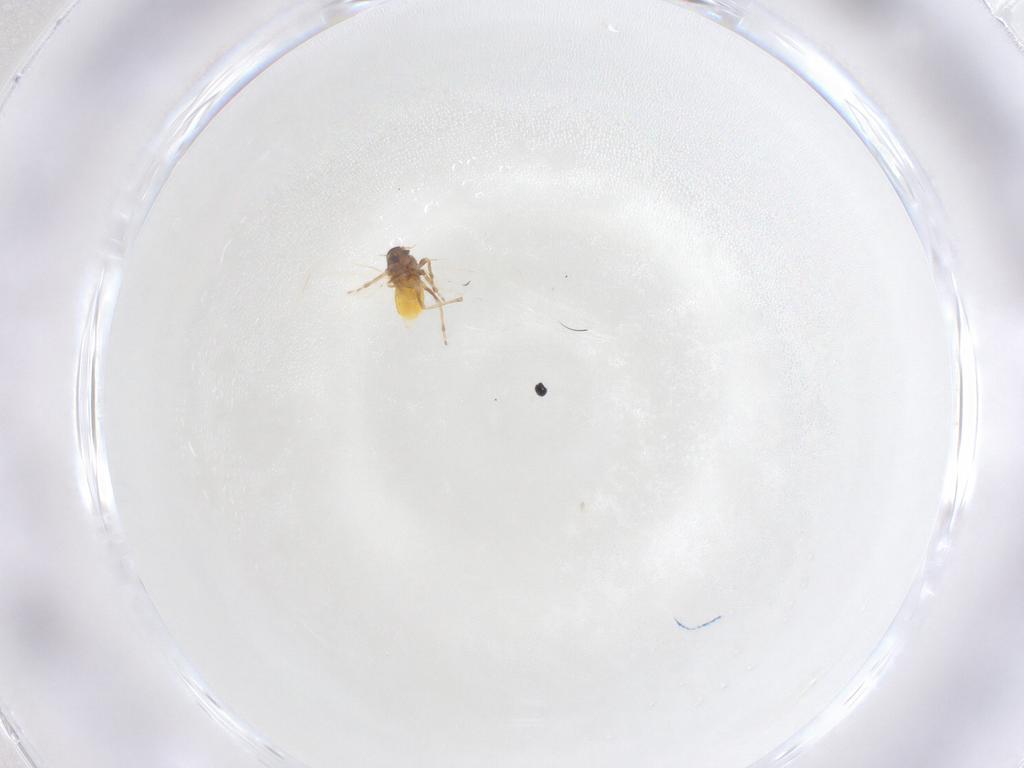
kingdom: Animalia
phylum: Arthropoda
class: Insecta
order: Hemiptera
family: Aleyrodidae
